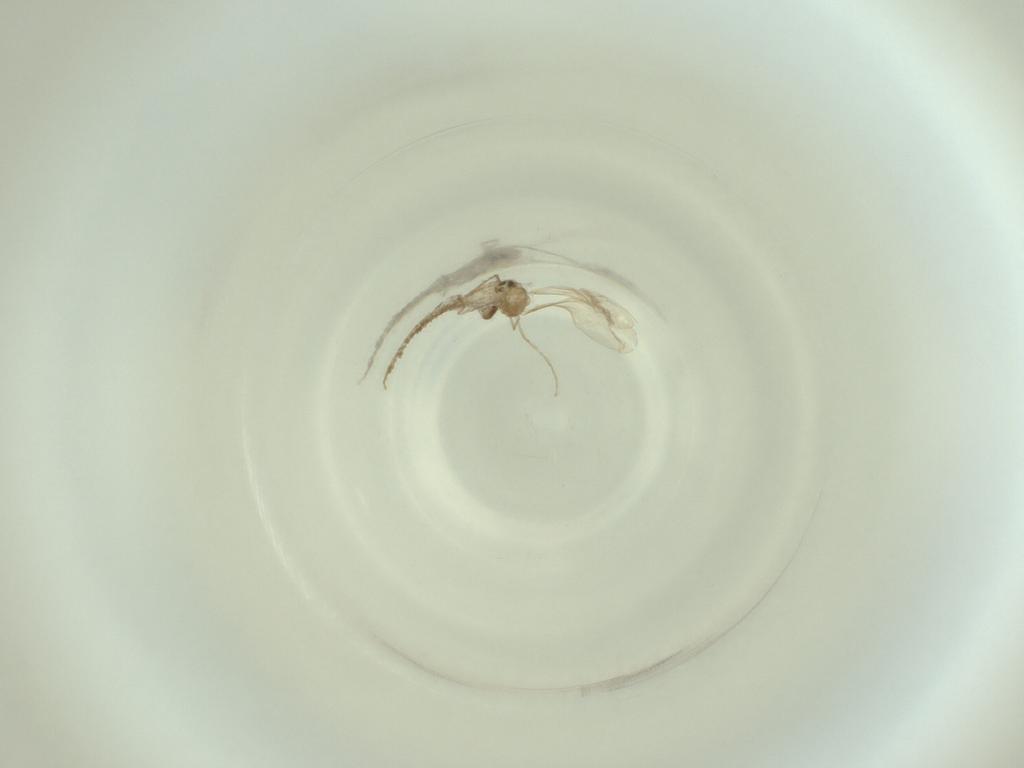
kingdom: Animalia
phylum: Arthropoda
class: Insecta
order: Diptera
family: Cecidomyiidae
